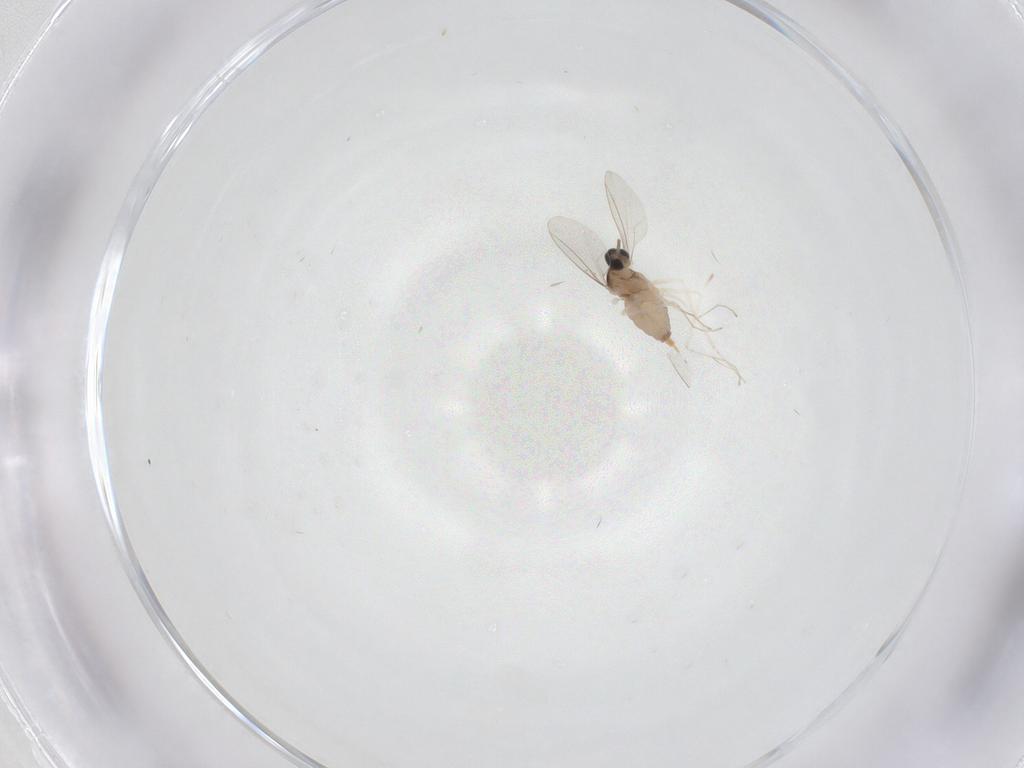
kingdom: Animalia
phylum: Arthropoda
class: Insecta
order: Diptera
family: Cecidomyiidae
